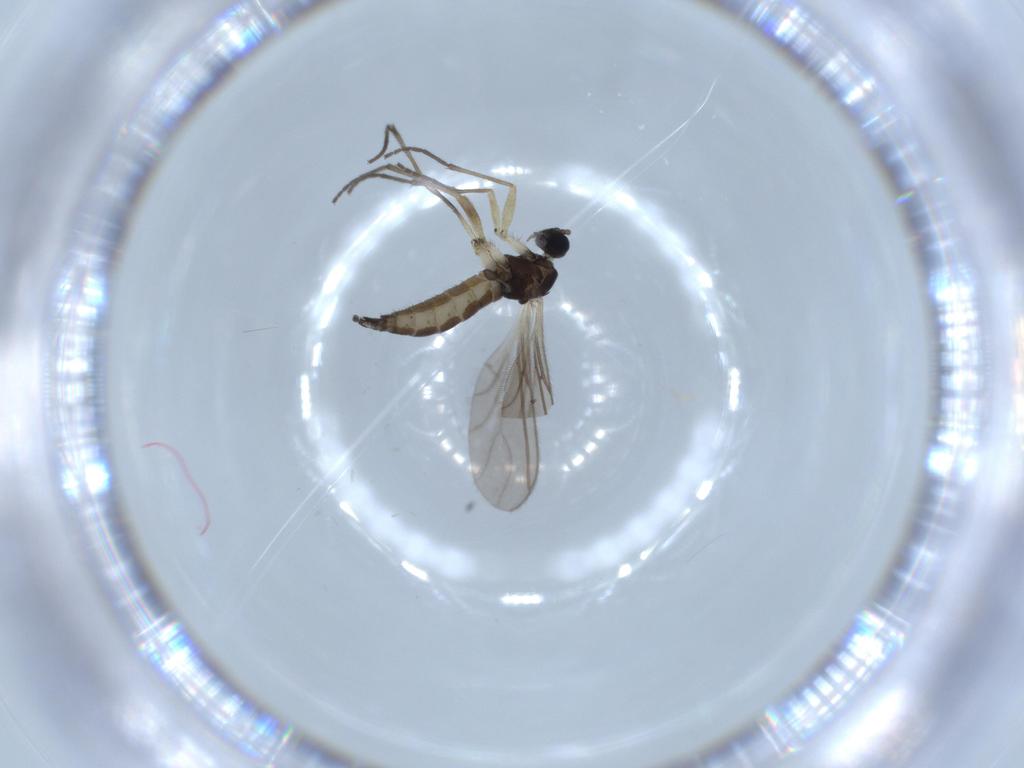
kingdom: Animalia
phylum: Arthropoda
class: Insecta
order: Diptera
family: Sciaridae
